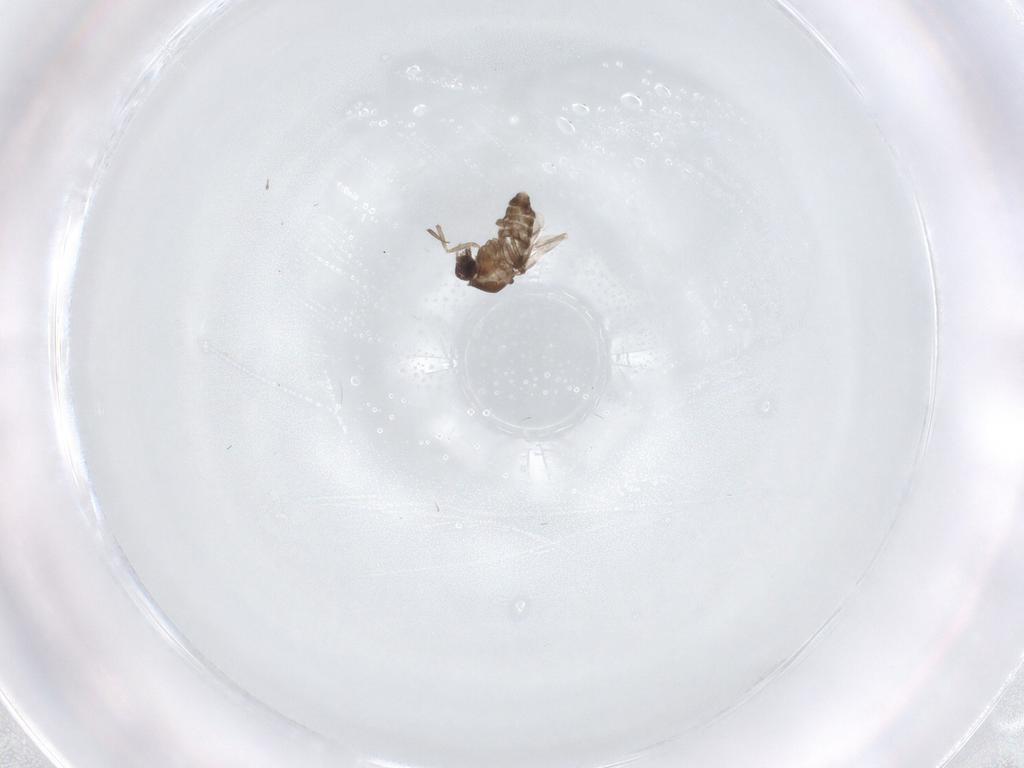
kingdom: Animalia
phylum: Arthropoda
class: Insecta
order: Diptera
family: Ceratopogonidae
